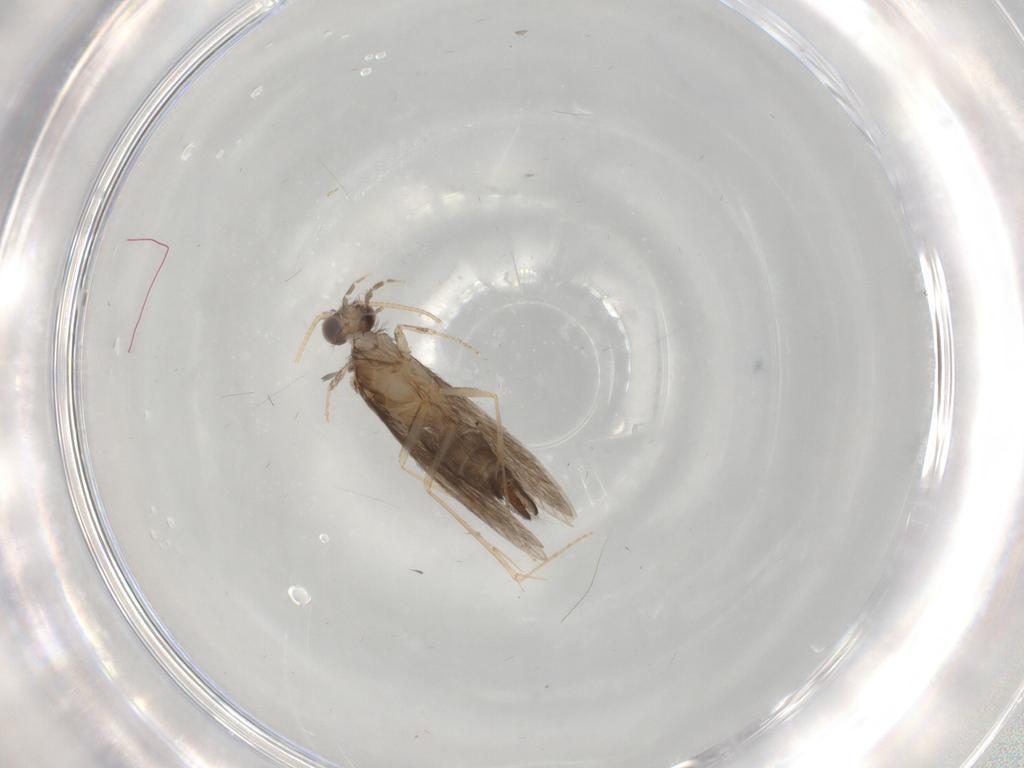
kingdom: Animalia
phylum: Arthropoda
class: Insecta
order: Trichoptera
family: Hydroptilidae
